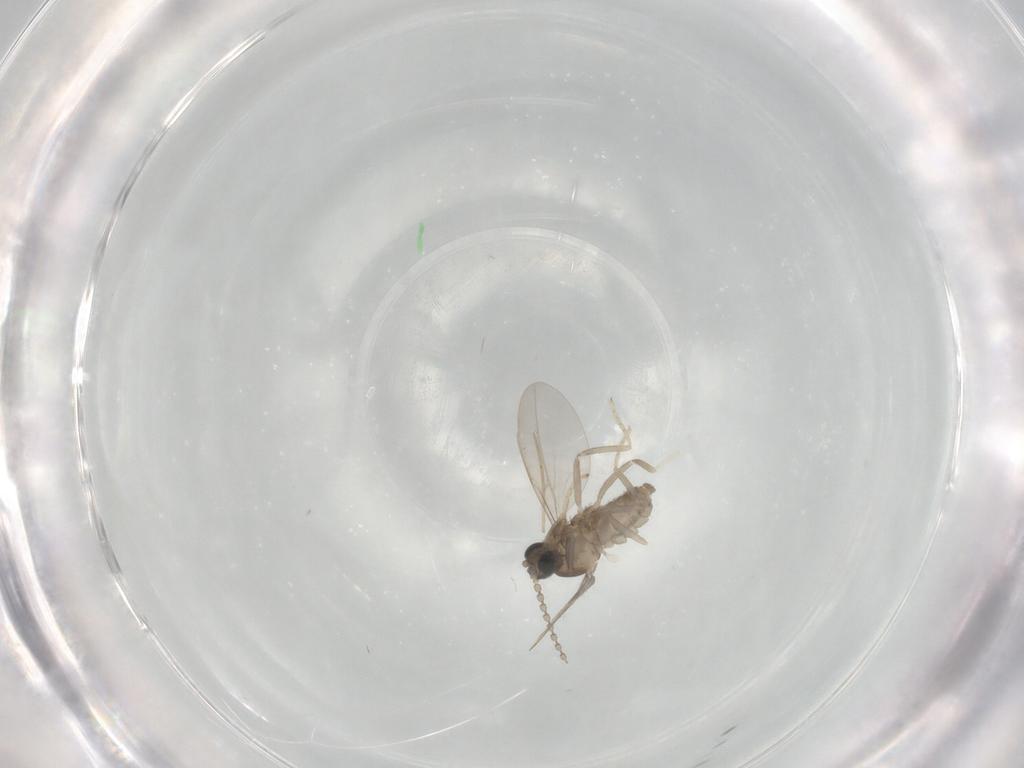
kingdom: Animalia
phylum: Arthropoda
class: Insecta
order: Diptera
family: Cecidomyiidae
